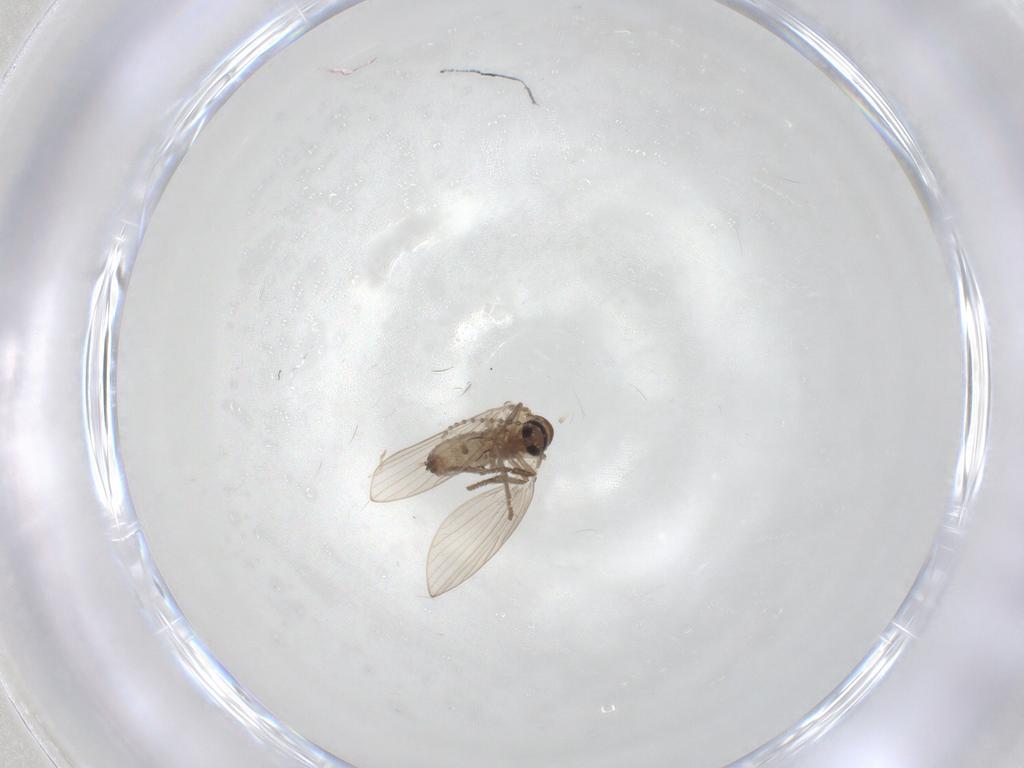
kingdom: Animalia
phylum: Arthropoda
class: Insecta
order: Diptera
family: Psychodidae
